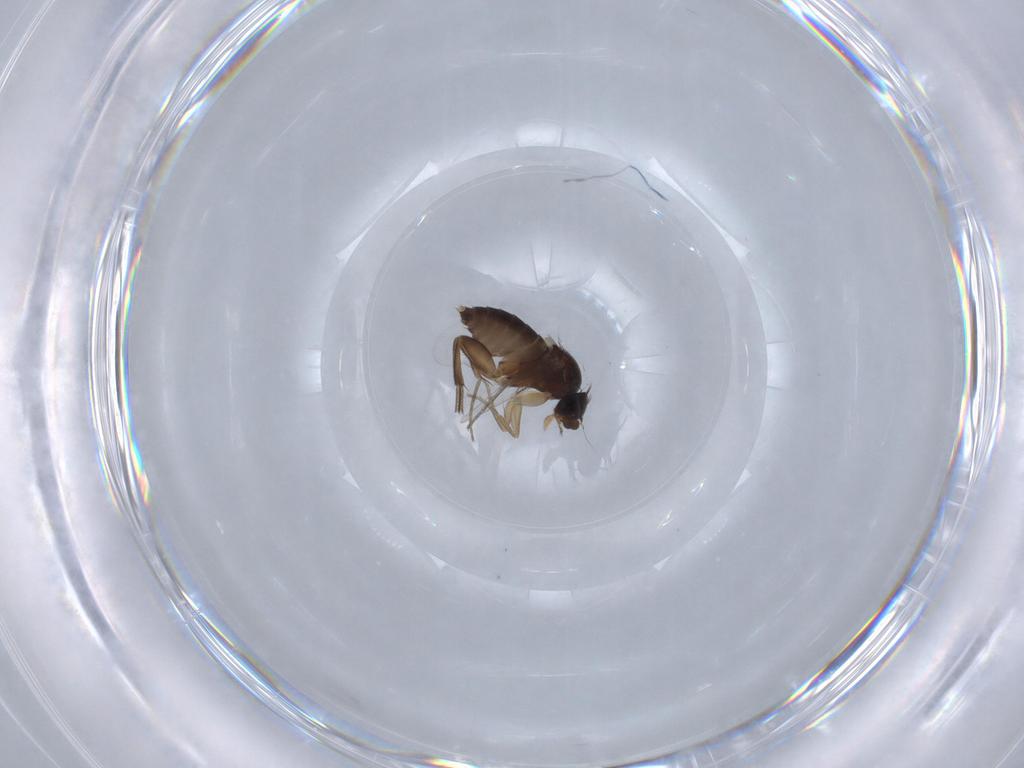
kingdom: Animalia
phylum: Arthropoda
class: Insecta
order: Diptera
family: Phoridae
